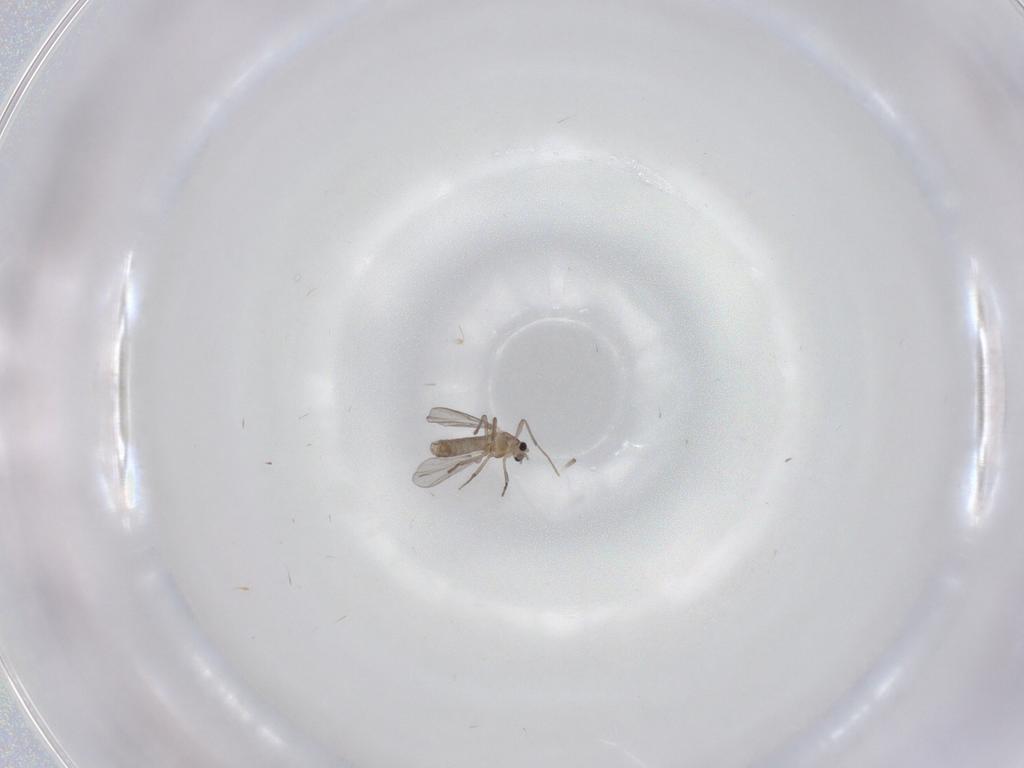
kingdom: Animalia
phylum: Arthropoda
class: Insecta
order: Diptera
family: Chironomidae
